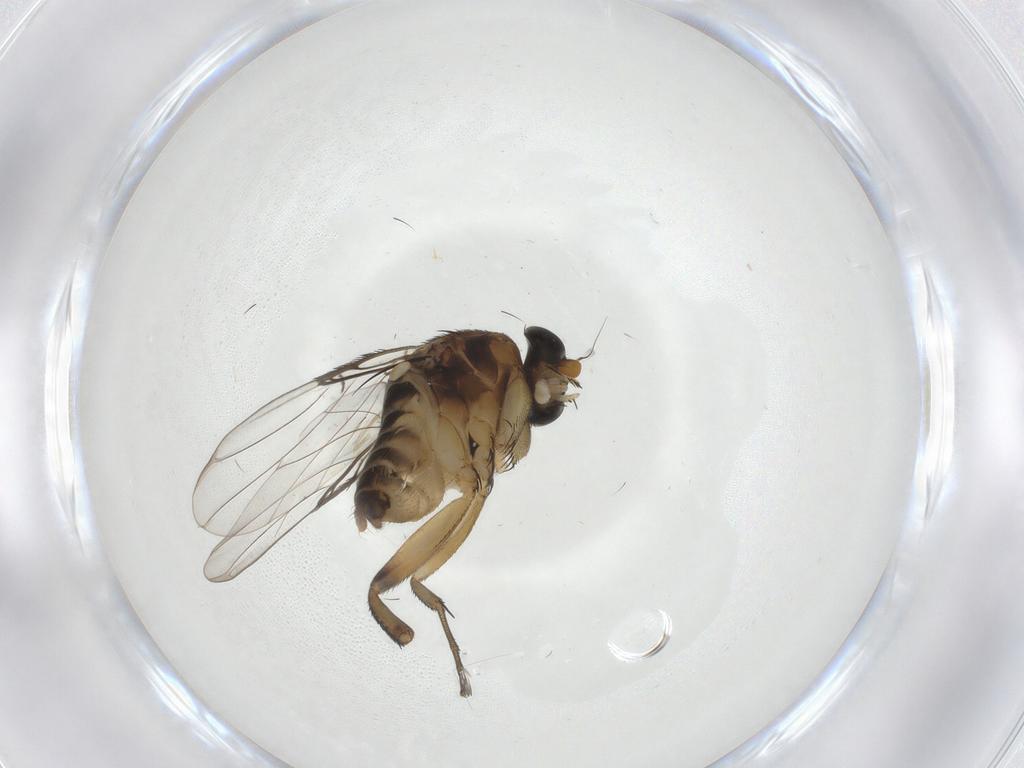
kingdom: Animalia
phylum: Arthropoda
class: Insecta
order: Diptera
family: Phoridae
